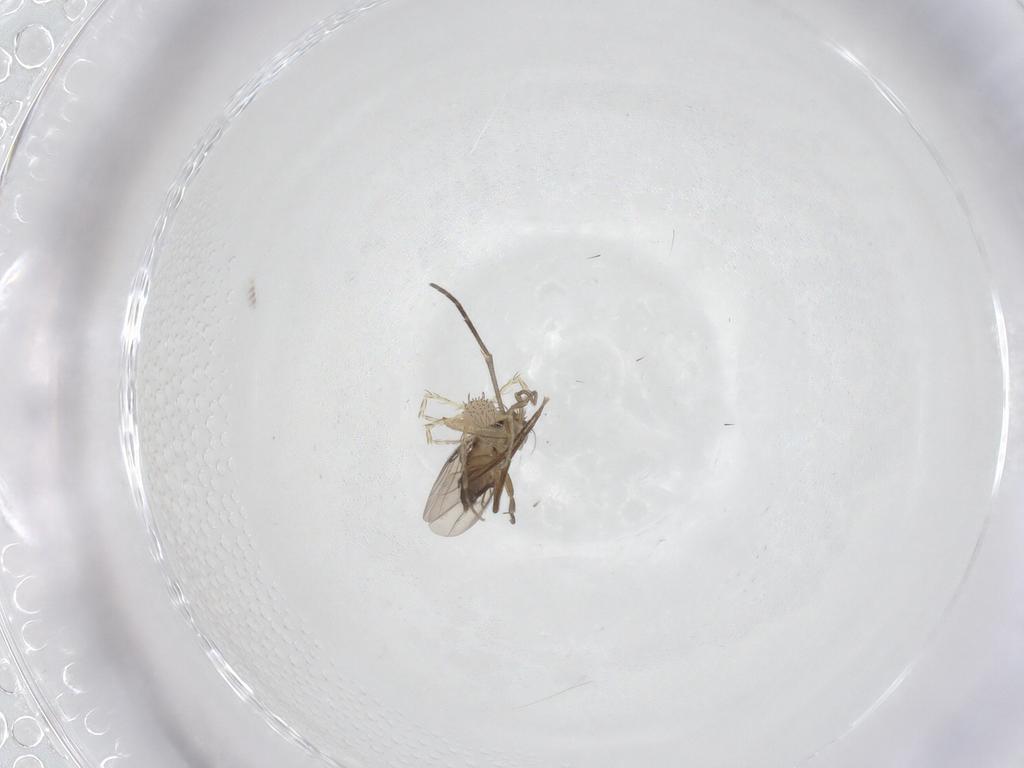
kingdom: Animalia
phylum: Arthropoda
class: Insecta
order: Diptera
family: Phoridae
